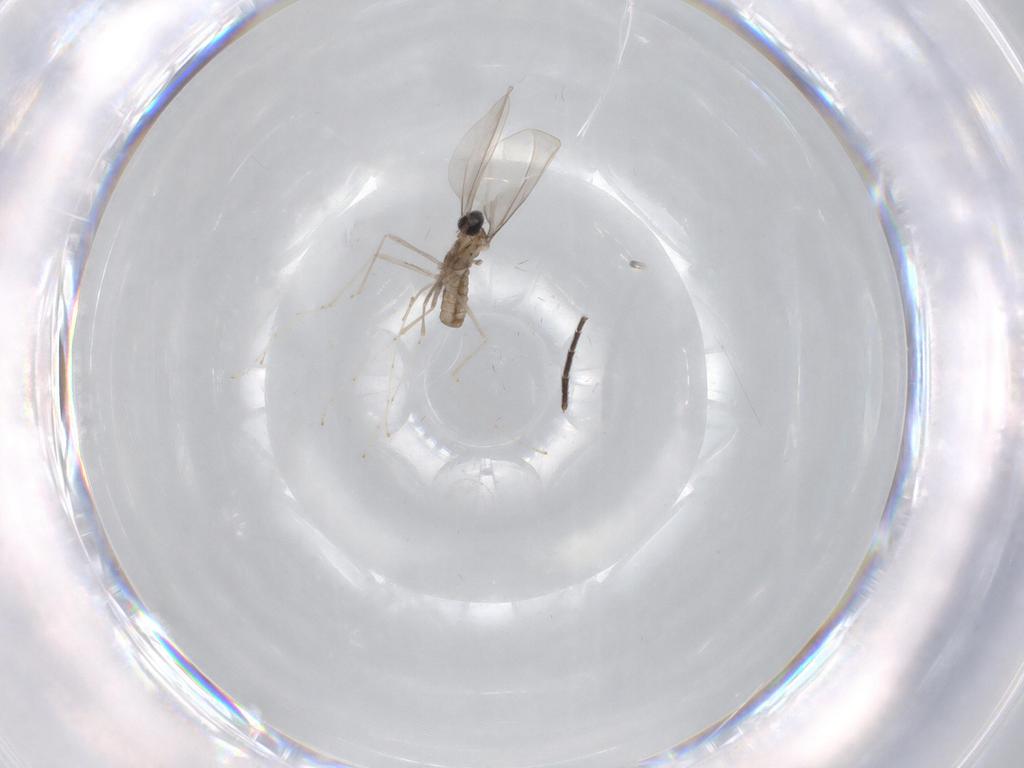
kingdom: Animalia
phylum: Arthropoda
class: Insecta
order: Diptera
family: Cecidomyiidae
